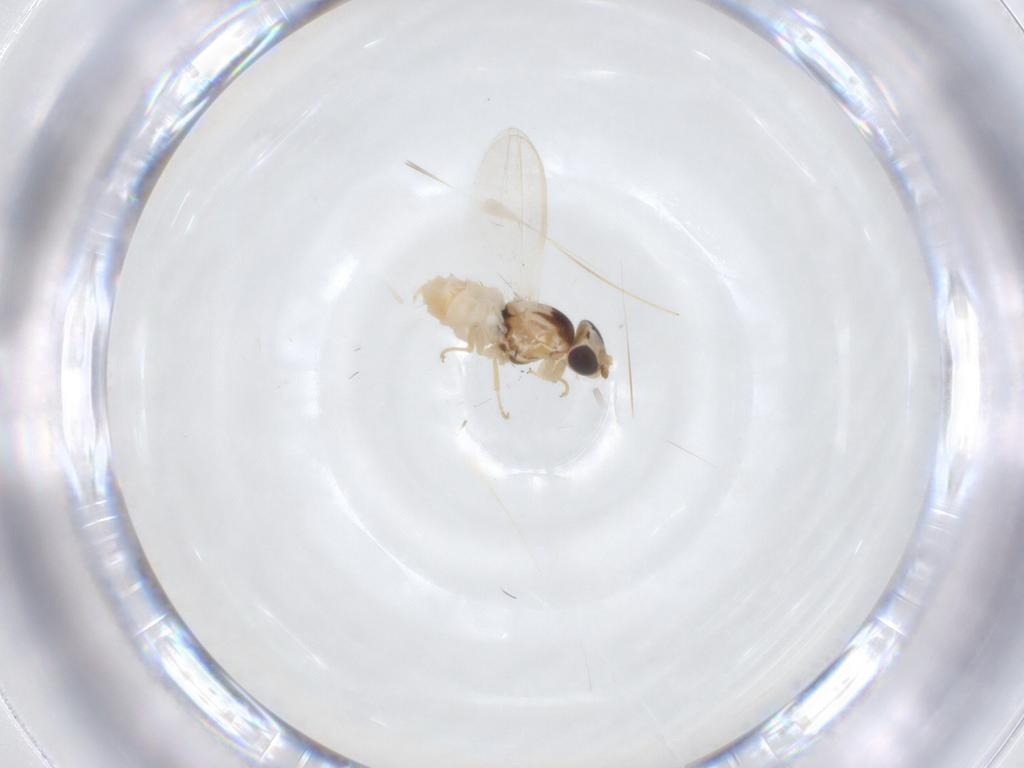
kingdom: Animalia
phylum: Arthropoda
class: Insecta
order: Diptera
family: Chloropidae
